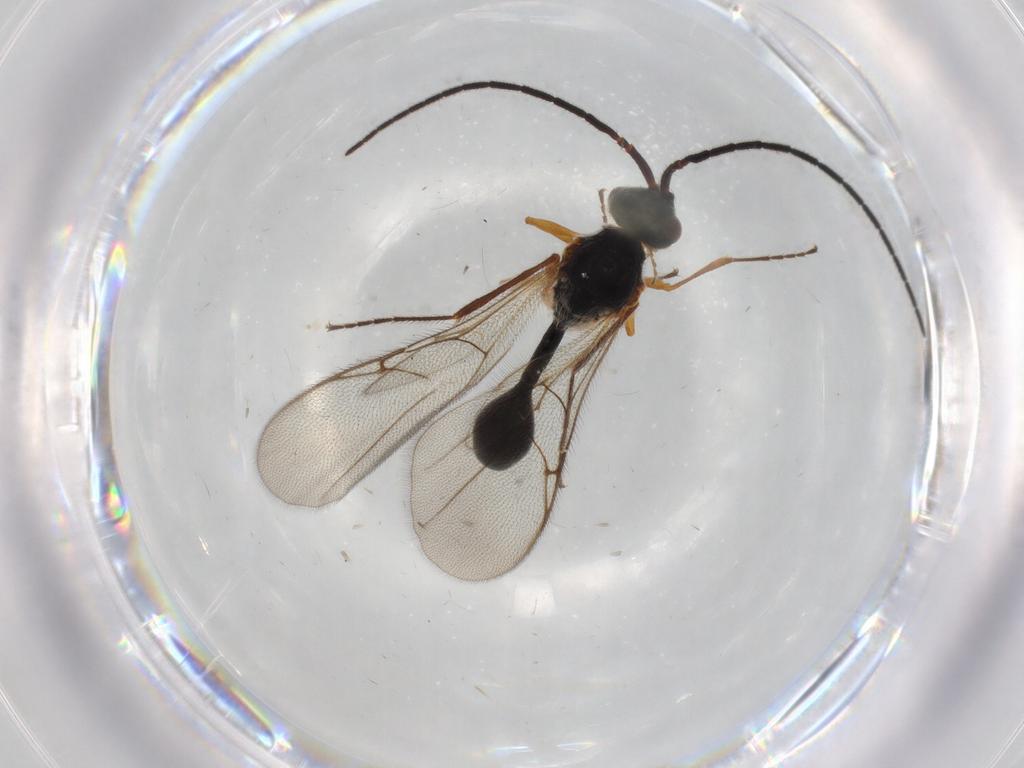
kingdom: Animalia
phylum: Arthropoda
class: Insecta
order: Hymenoptera
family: Diapriidae
